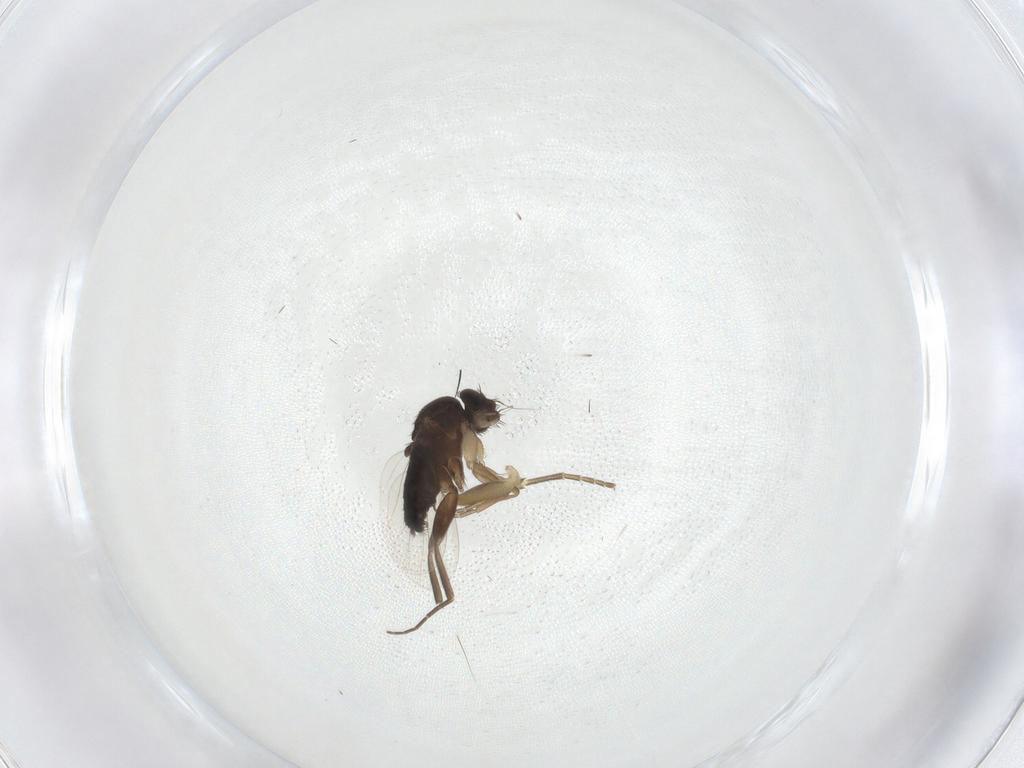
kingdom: Animalia
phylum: Arthropoda
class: Insecta
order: Diptera
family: Phoridae
